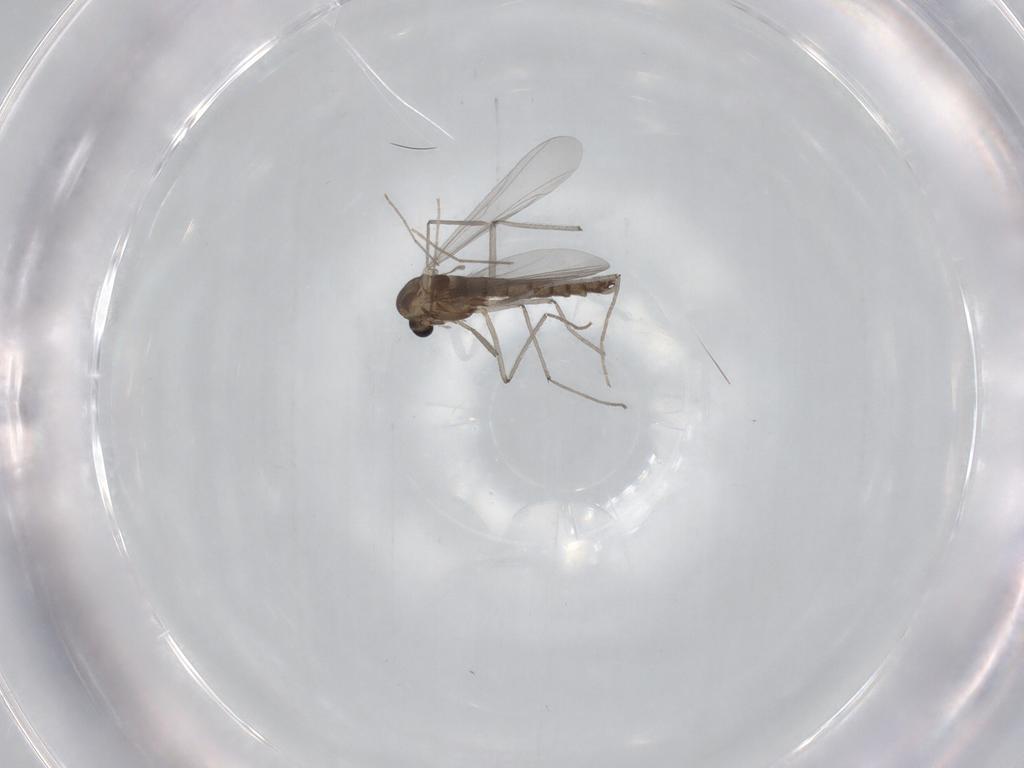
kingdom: Animalia
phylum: Arthropoda
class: Insecta
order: Diptera
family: Chironomidae
